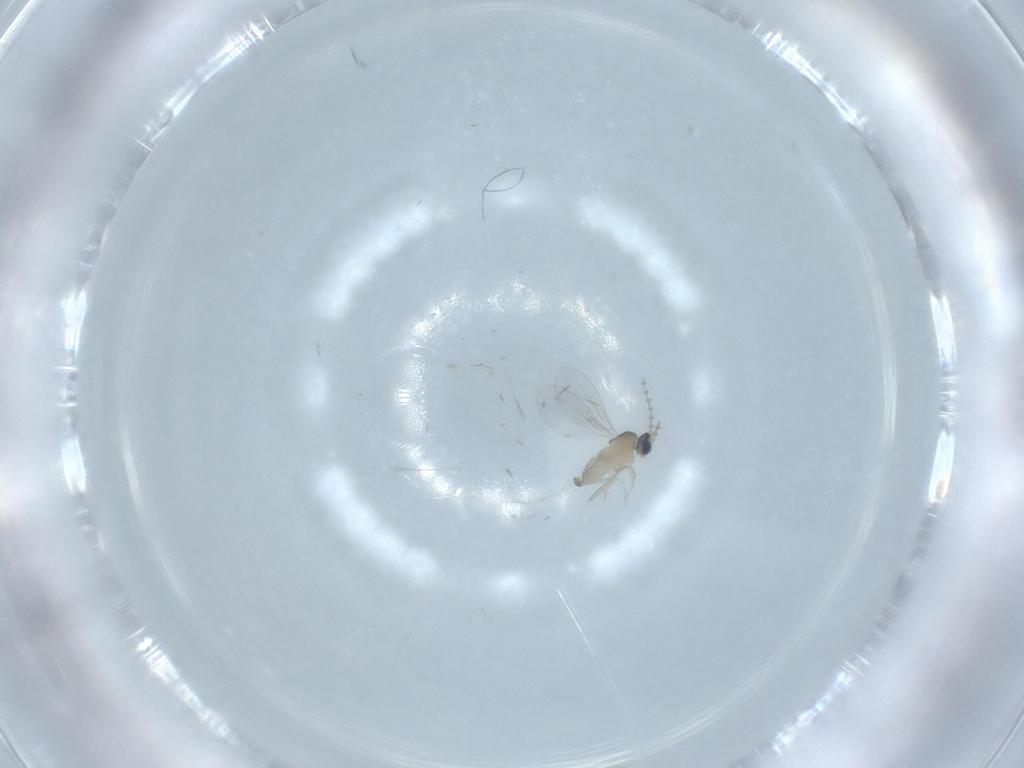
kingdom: Animalia
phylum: Arthropoda
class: Insecta
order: Diptera
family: Cecidomyiidae
